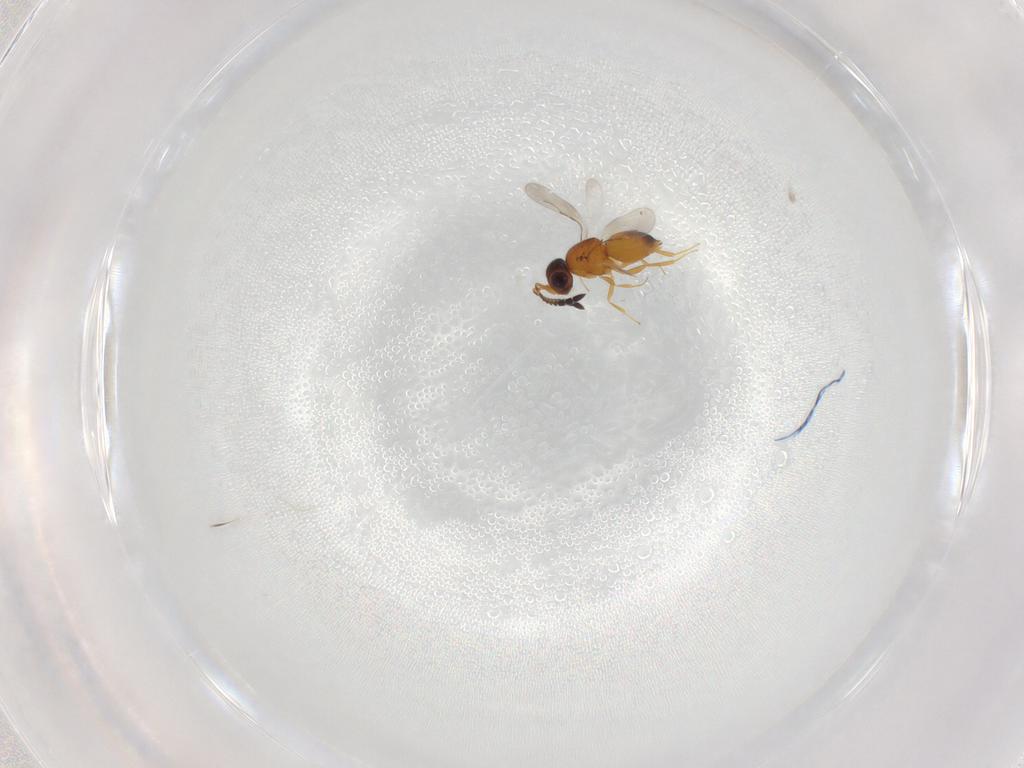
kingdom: Animalia
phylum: Arthropoda
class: Insecta
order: Hymenoptera
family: Ceraphronidae
